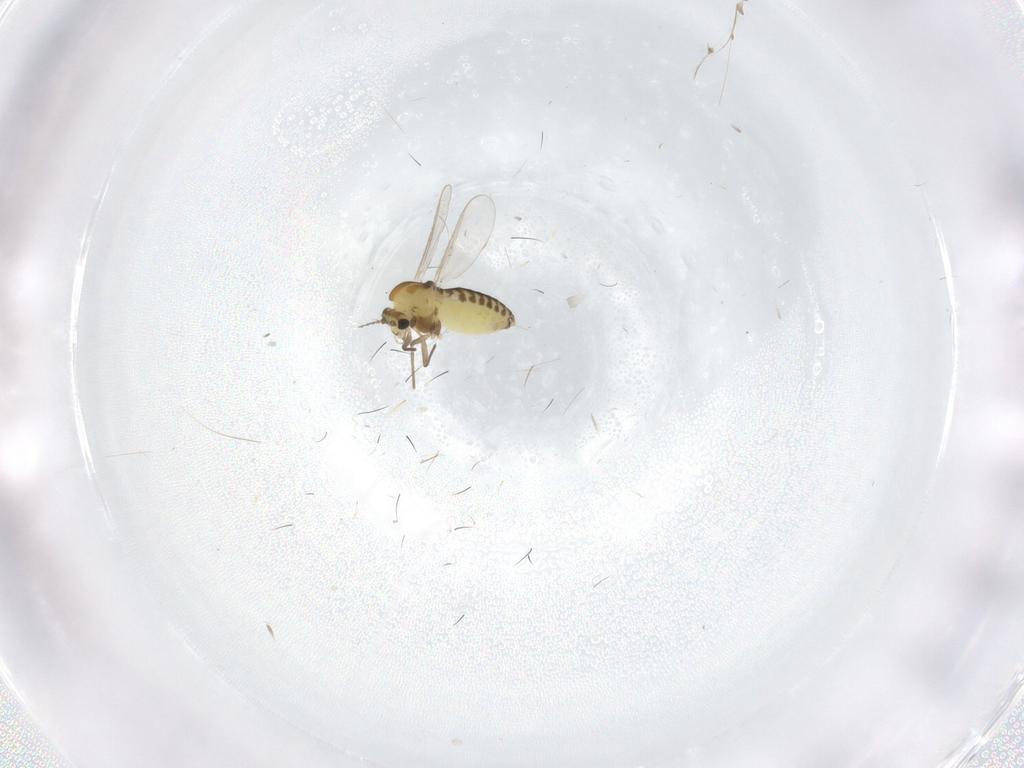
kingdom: Animalia
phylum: Arthropoda
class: Insecta
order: Diptera
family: Chironomidae
